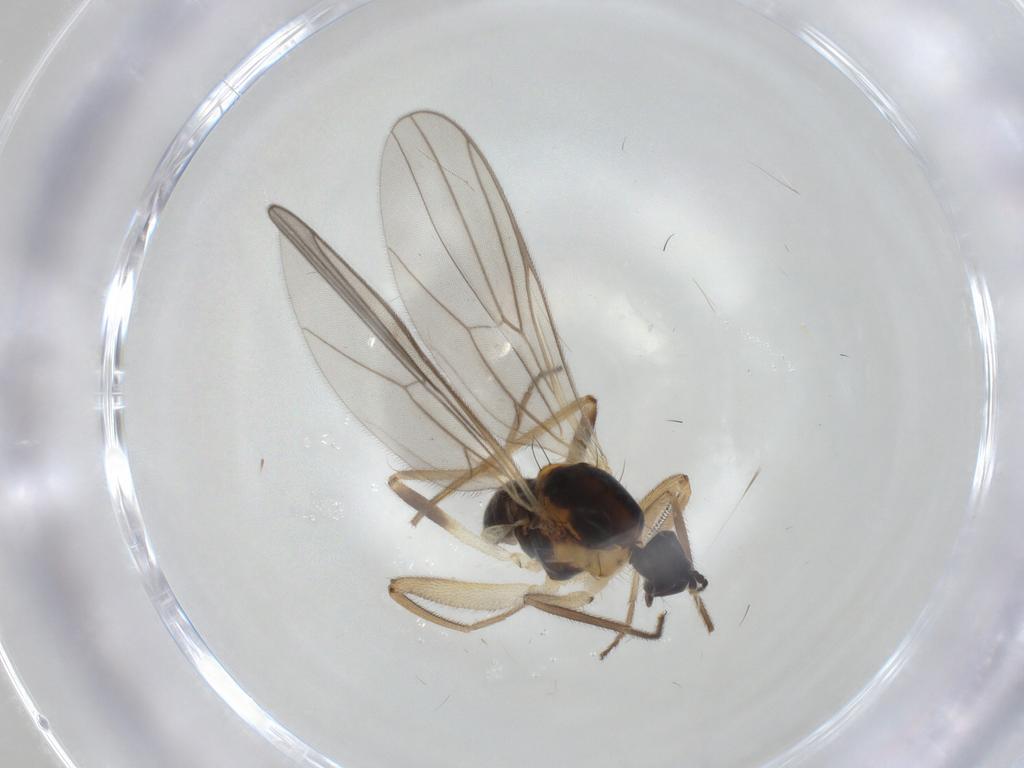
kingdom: Animalia
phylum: Arthropoda
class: Insecta
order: Diptera
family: Hybotidae
